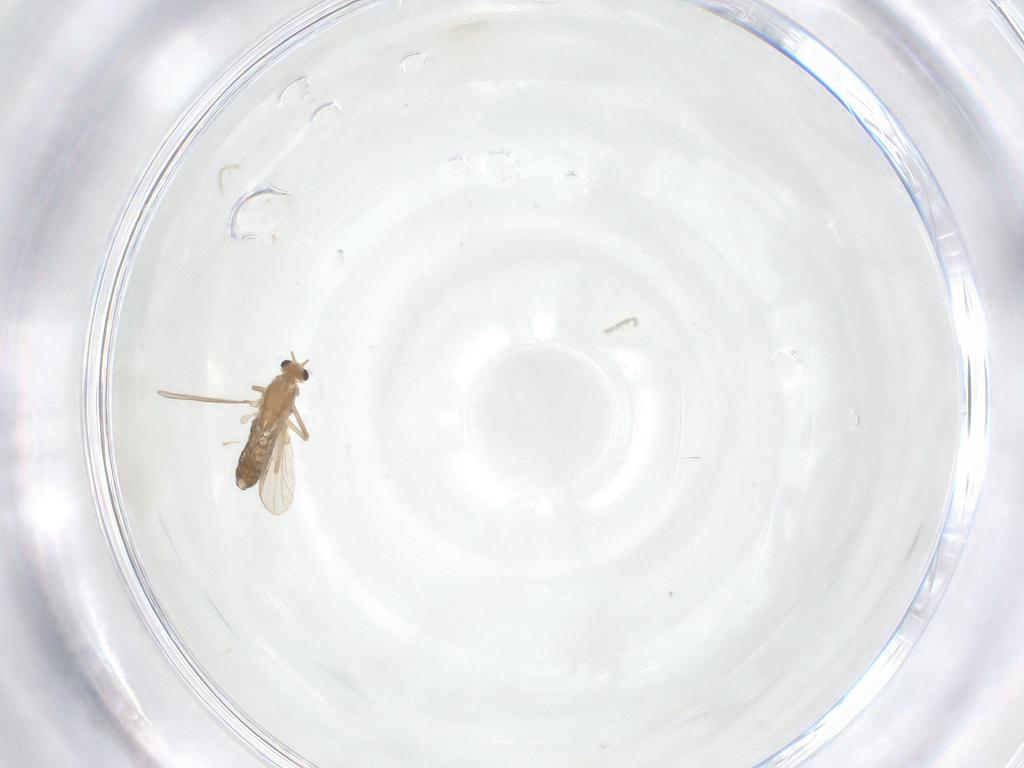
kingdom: Animalia
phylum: Arthropoda
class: Insecta
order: Diptera
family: Chironomidae
